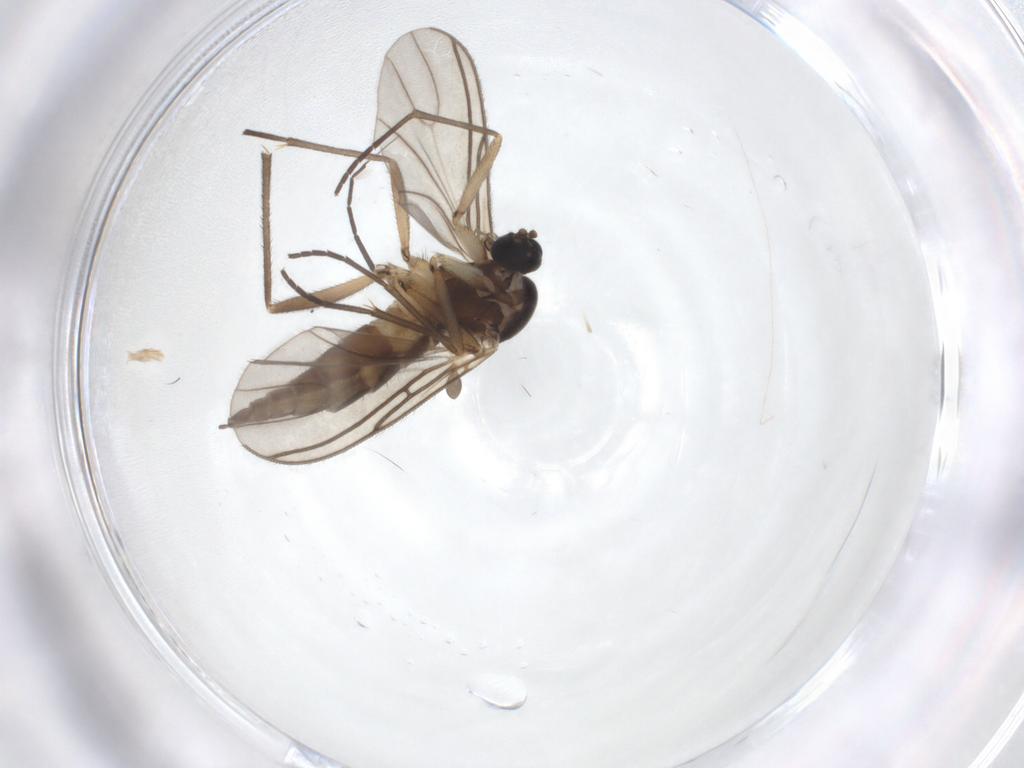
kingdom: Animalia
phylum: Arthropoda
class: Insecta
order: Diptera
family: Sciaridae
